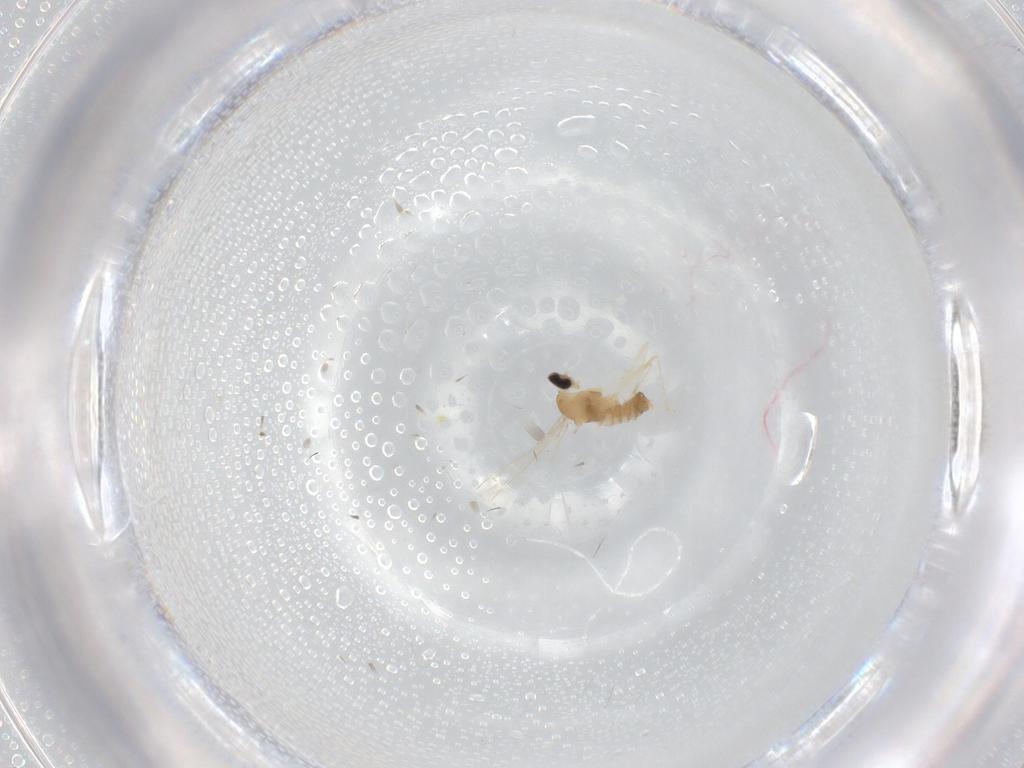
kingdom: Animalia
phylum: Arthropoda
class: Insecta
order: Diptera
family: Cecidomyiidae
